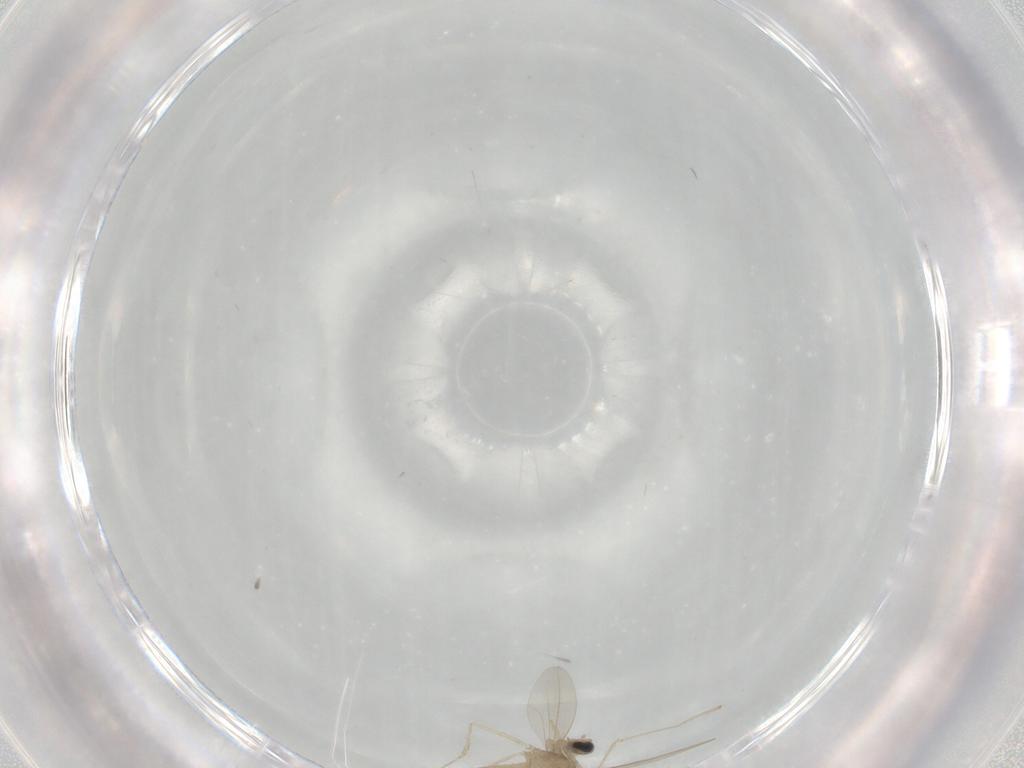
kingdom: Animalia
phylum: Arthropoda
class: Insecta
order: Diptera
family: Cecidomyiidae
